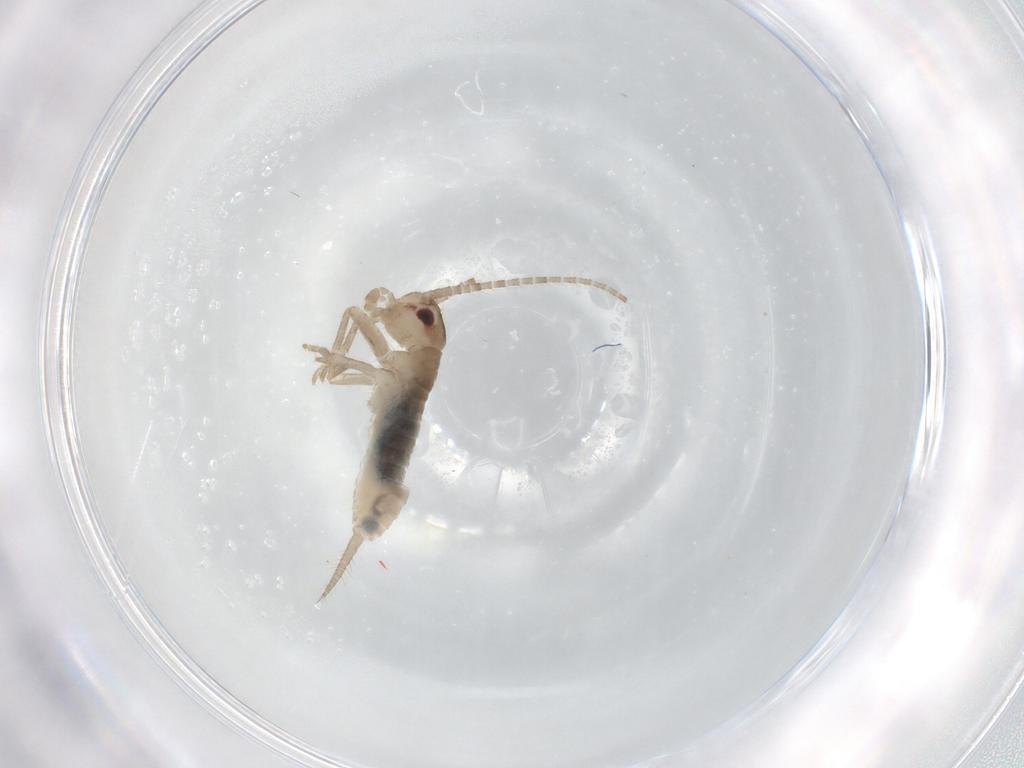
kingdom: Animalia
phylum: Arthropoda
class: Insecta
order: Orthoptera
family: Mogoplistidae
